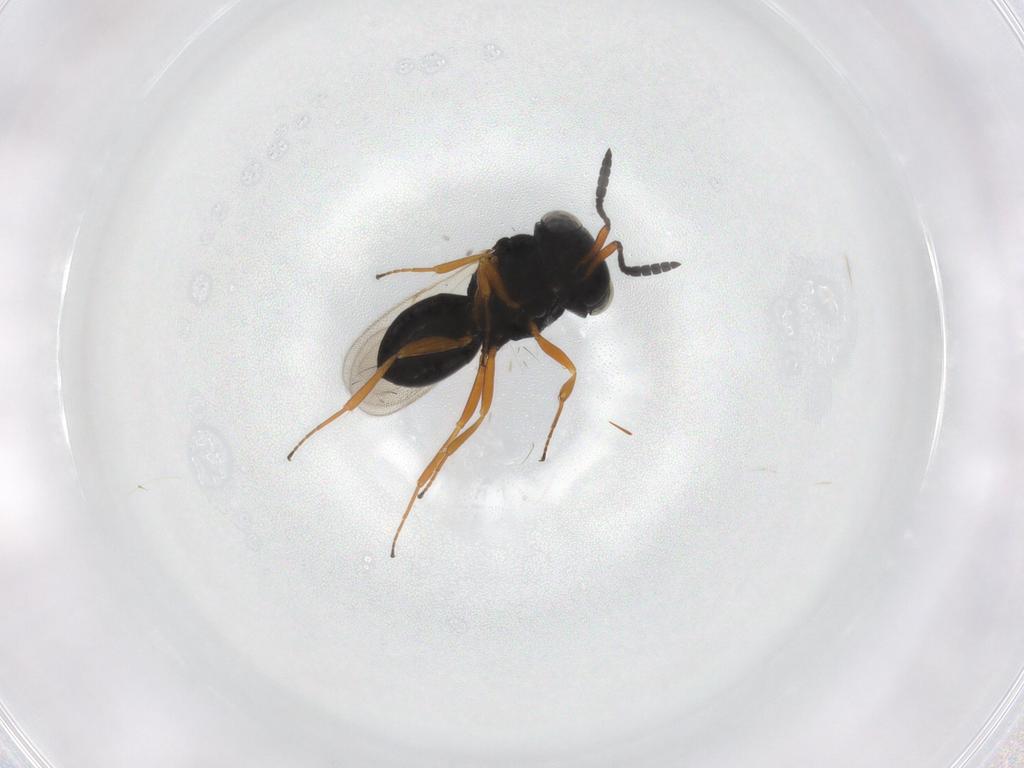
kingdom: Animalia
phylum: Arthropoda
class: Insecta
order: Hymenoptera
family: Scelionidae
